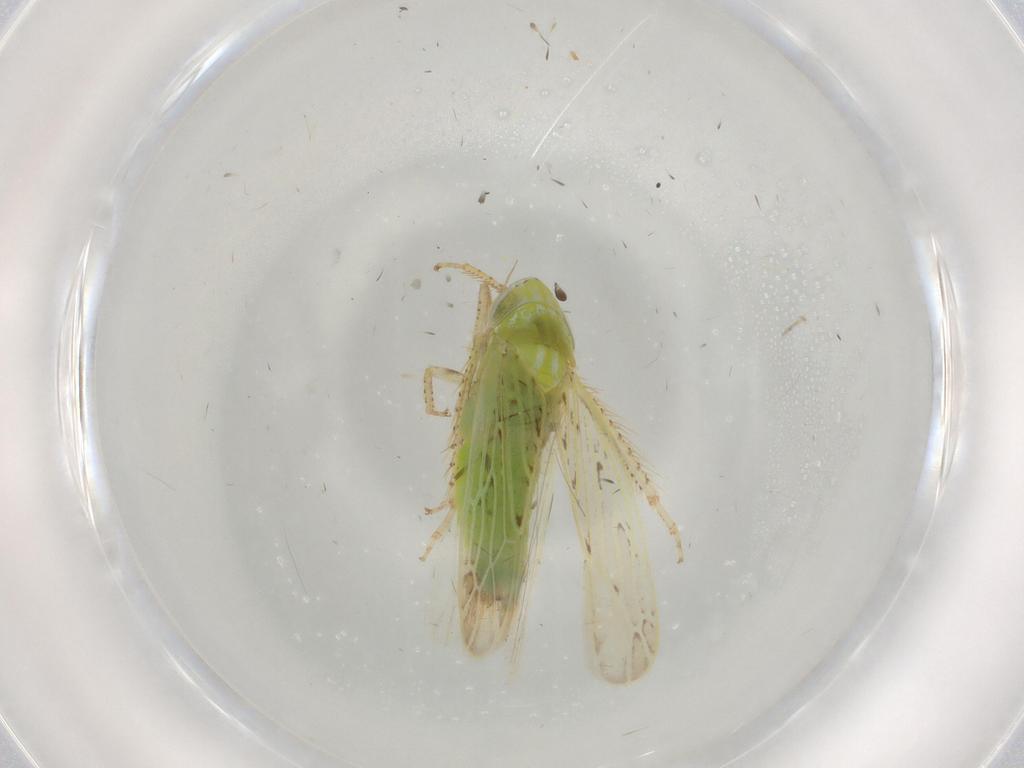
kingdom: Animalia
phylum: Arthropoda
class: Insecta
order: Hemiptera
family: Cicadellidae
